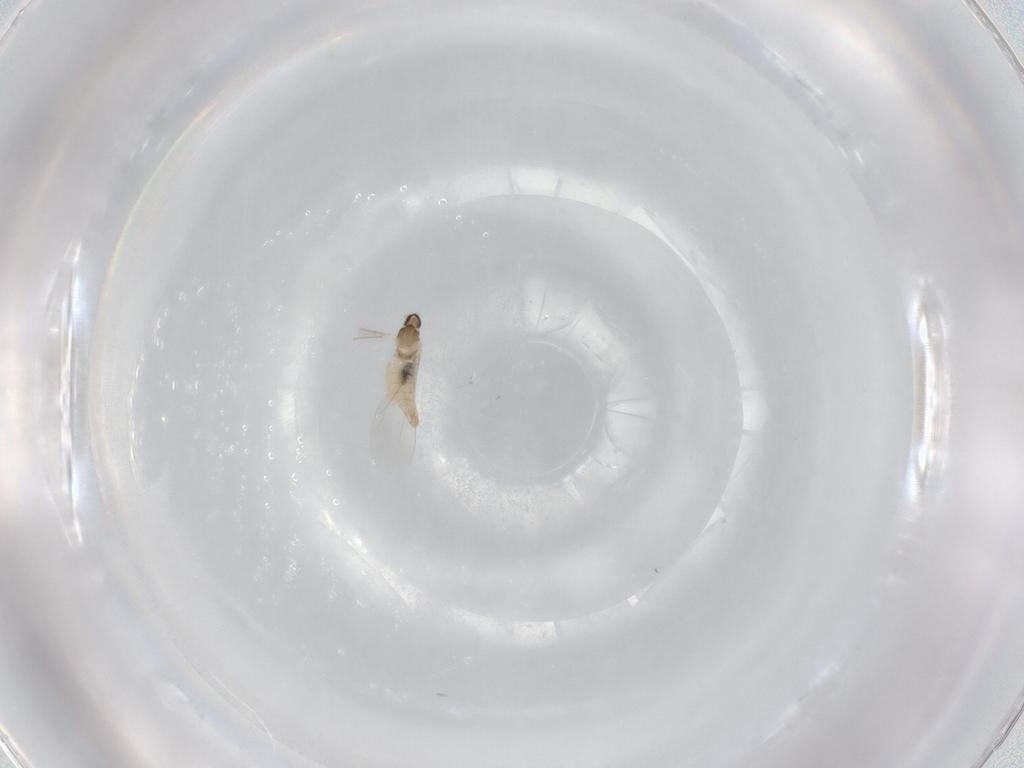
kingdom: Animalia
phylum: Arthropoda
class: Insecta
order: Diptera
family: Cecidomyiidae
